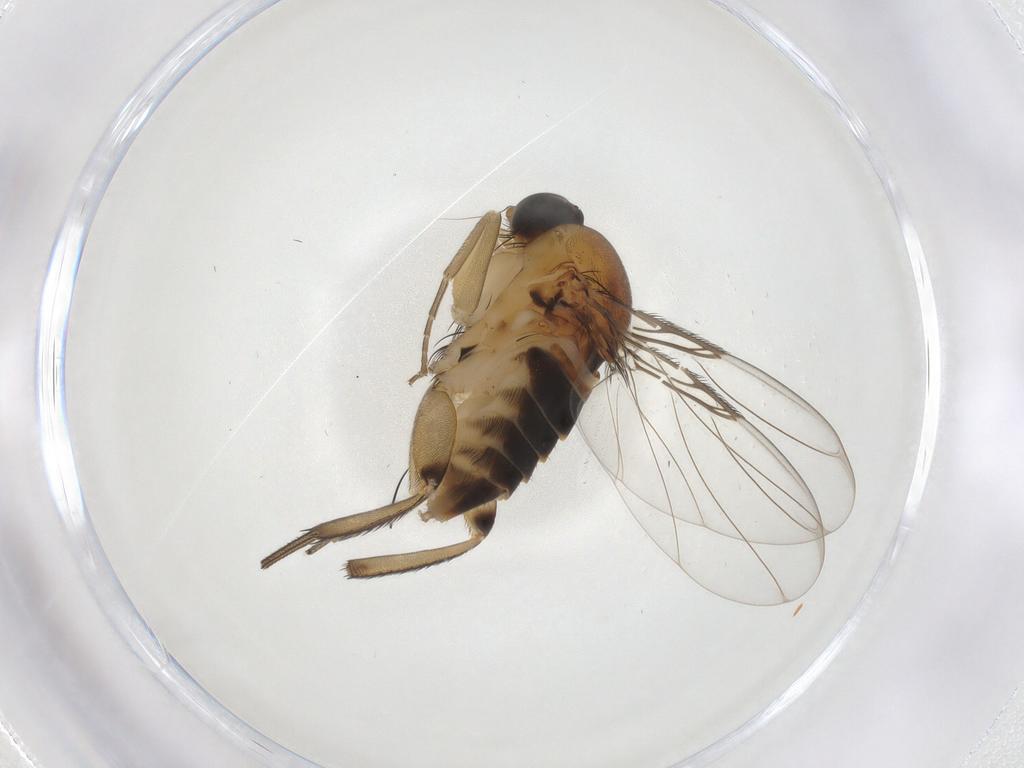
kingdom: Animalia
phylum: Arthropoda
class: Insecta
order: Diptera
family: Phoridae
